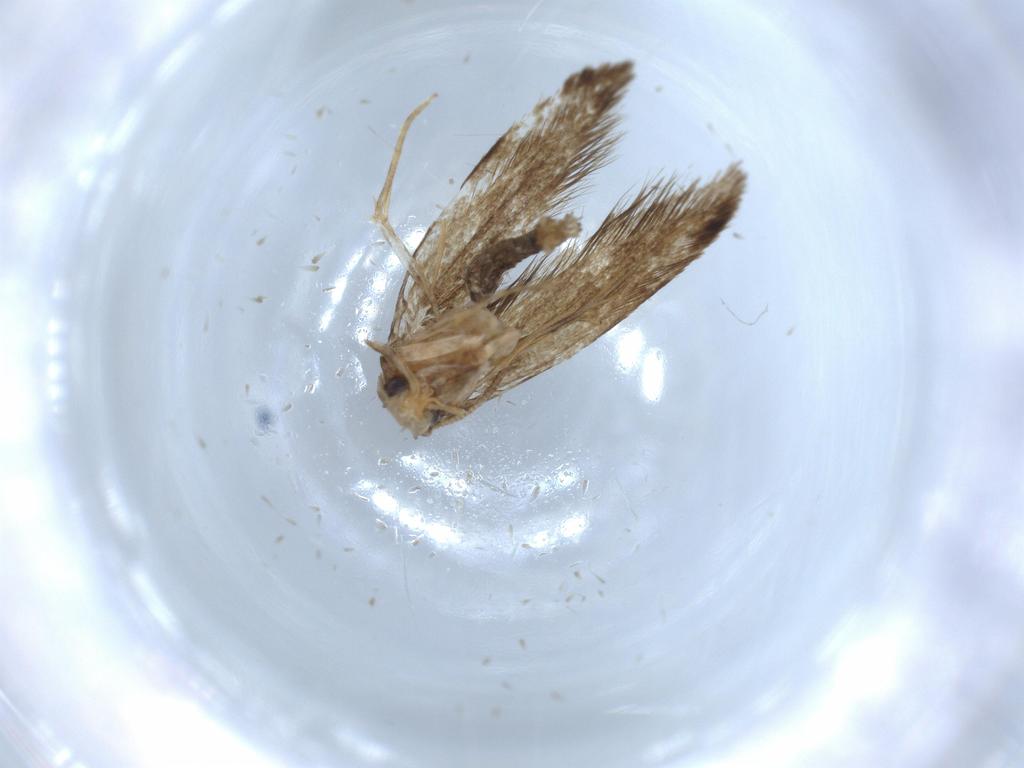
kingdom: Animalia
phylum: Arthropoda
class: Insecta
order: Lepidoptera
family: Tineidae
